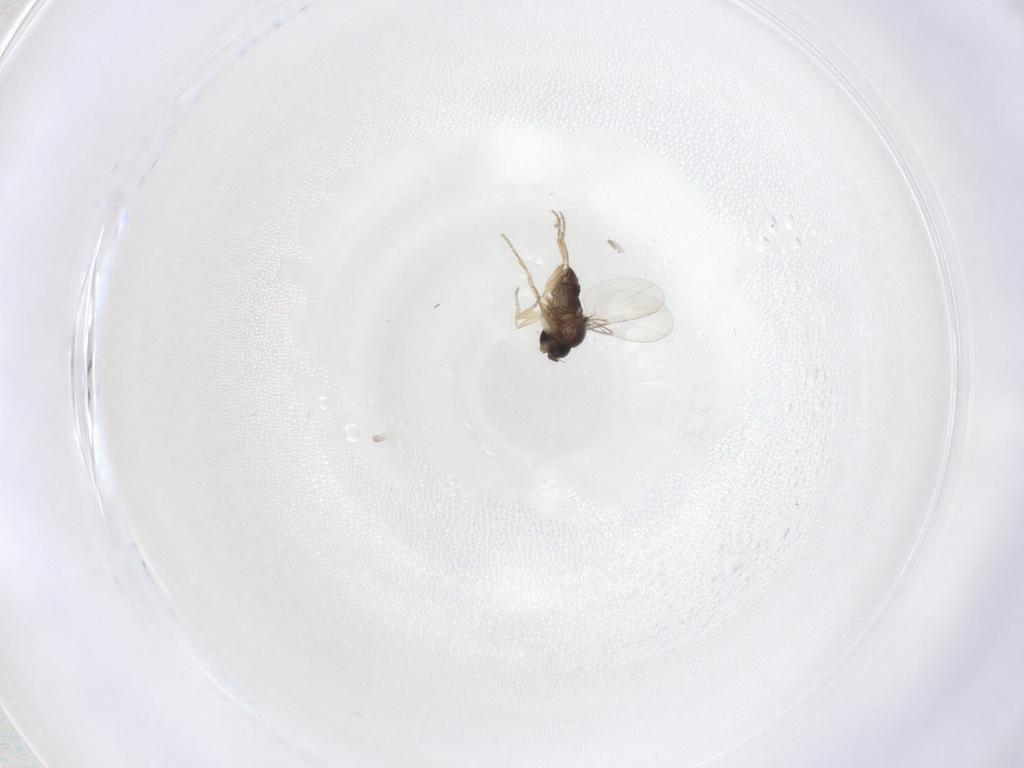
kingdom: Animalia
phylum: Arthropoda
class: Insecta
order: Diptera
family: Phoridae
